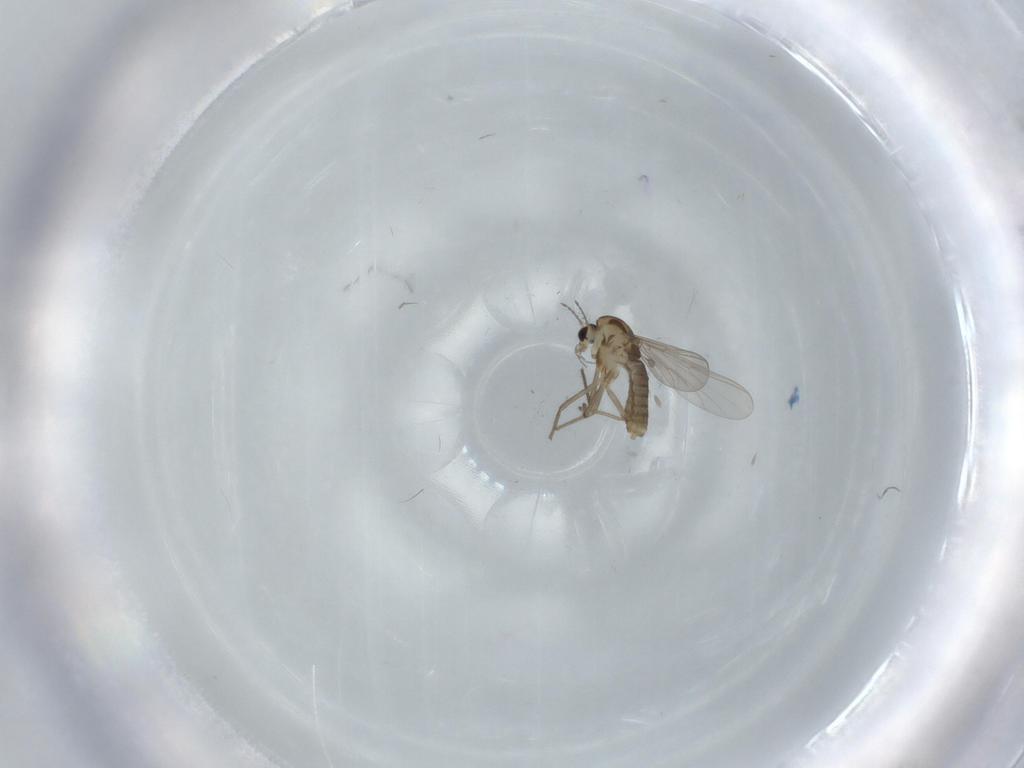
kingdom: Animalia
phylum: Arthropoda
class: Insecta
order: Diptera
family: Chironomidae
